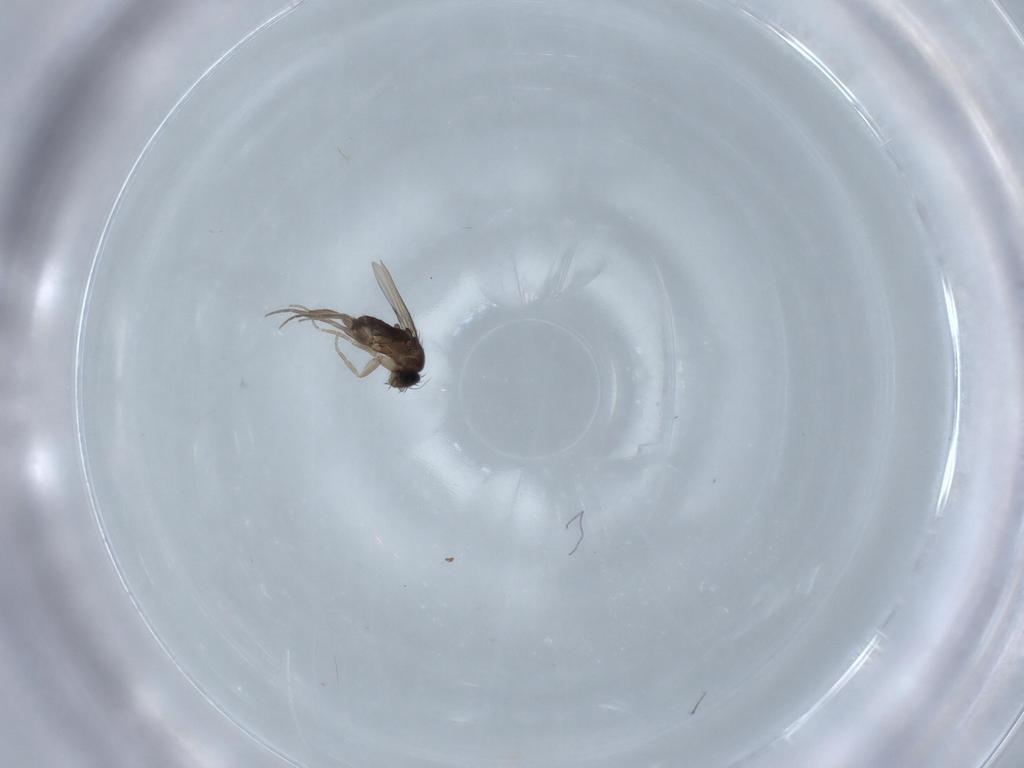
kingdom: Animalia
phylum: Arthropoda
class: Insecta
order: Diptera
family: Phoridae
